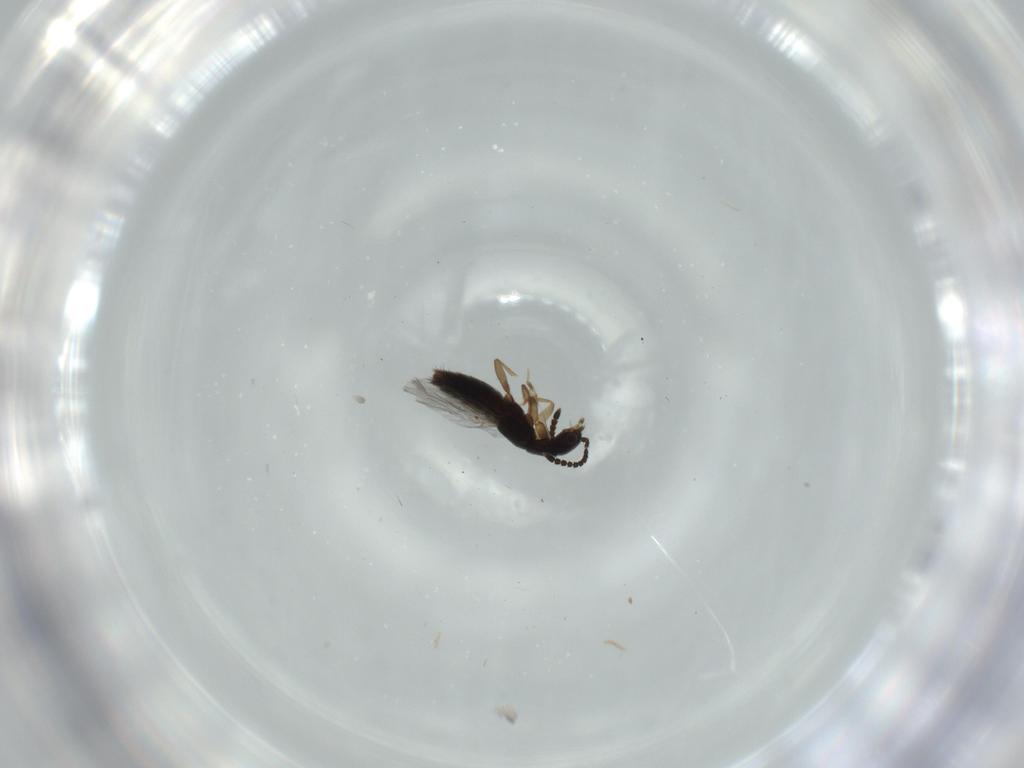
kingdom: Animalia
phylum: Arthropoda
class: Insecta
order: Coleoptera
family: Staphylinidae
